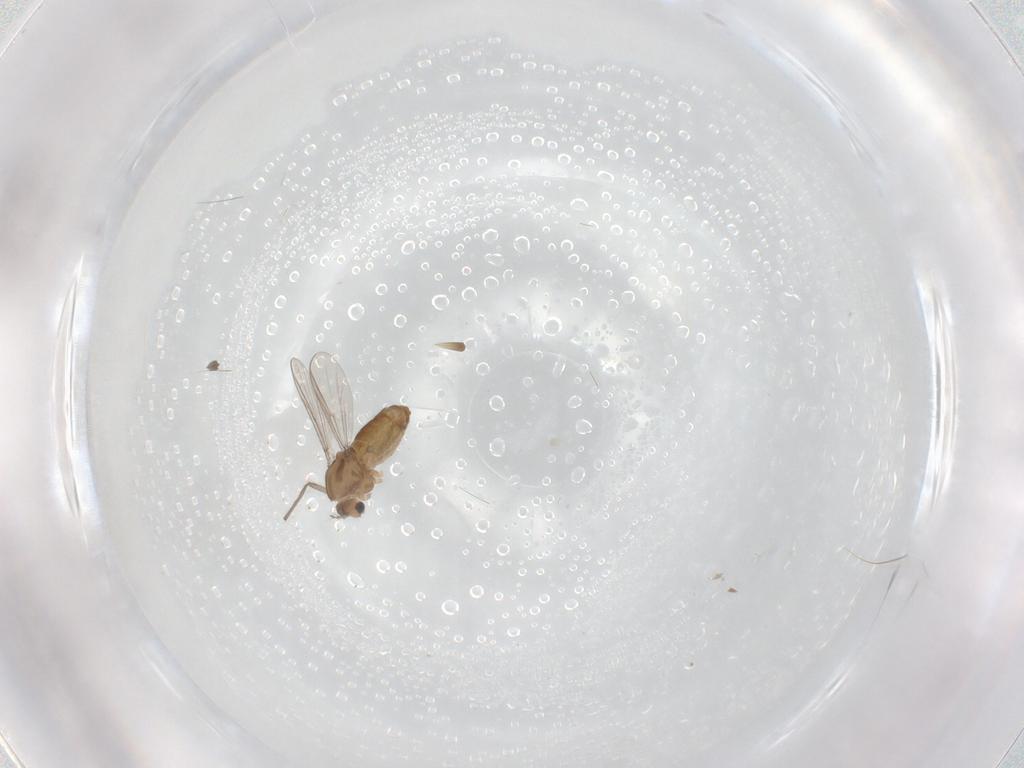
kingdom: Animalia
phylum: Arthropoda
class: Insecta
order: Diptera
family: Chironomidae
